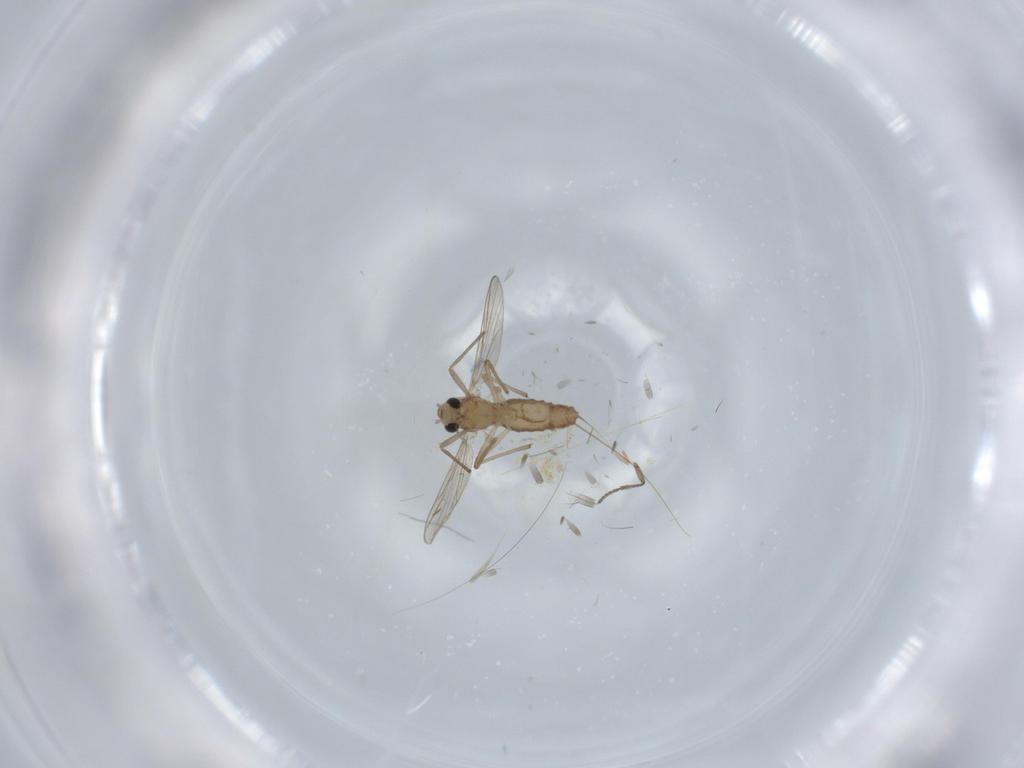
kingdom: Animalia
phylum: Arthropoda
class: Insecta
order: Diptera
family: Chironomidae
